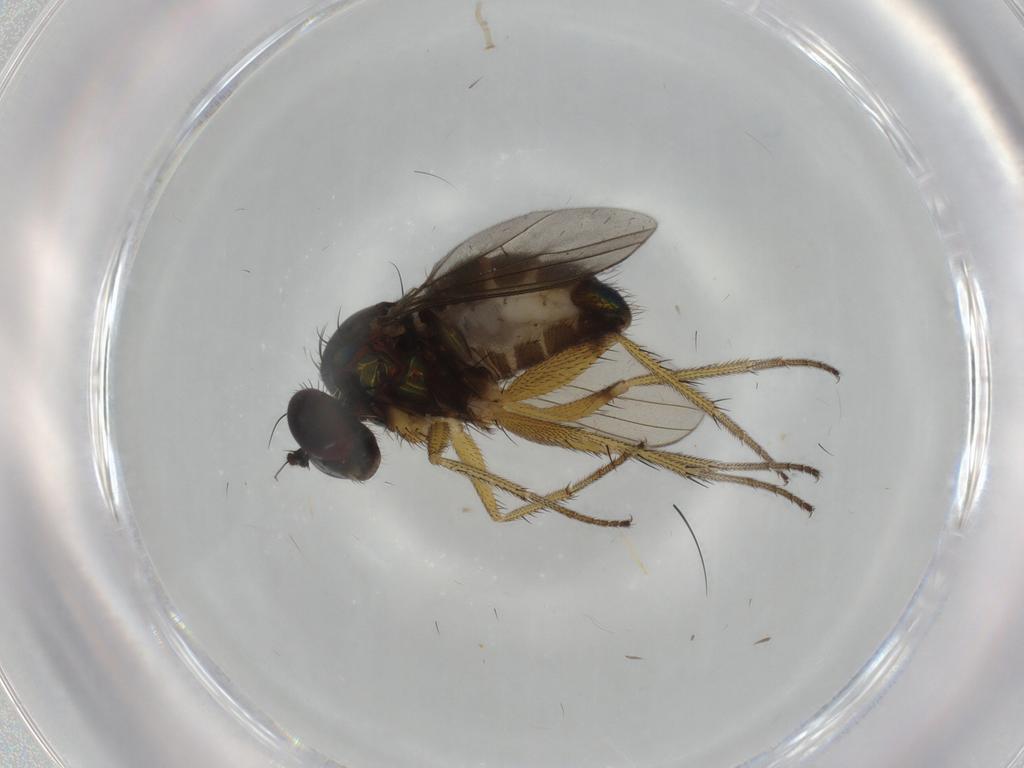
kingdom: Animalia
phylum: Arthropoda
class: Insecta
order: Diptera
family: Dolichopodidae
